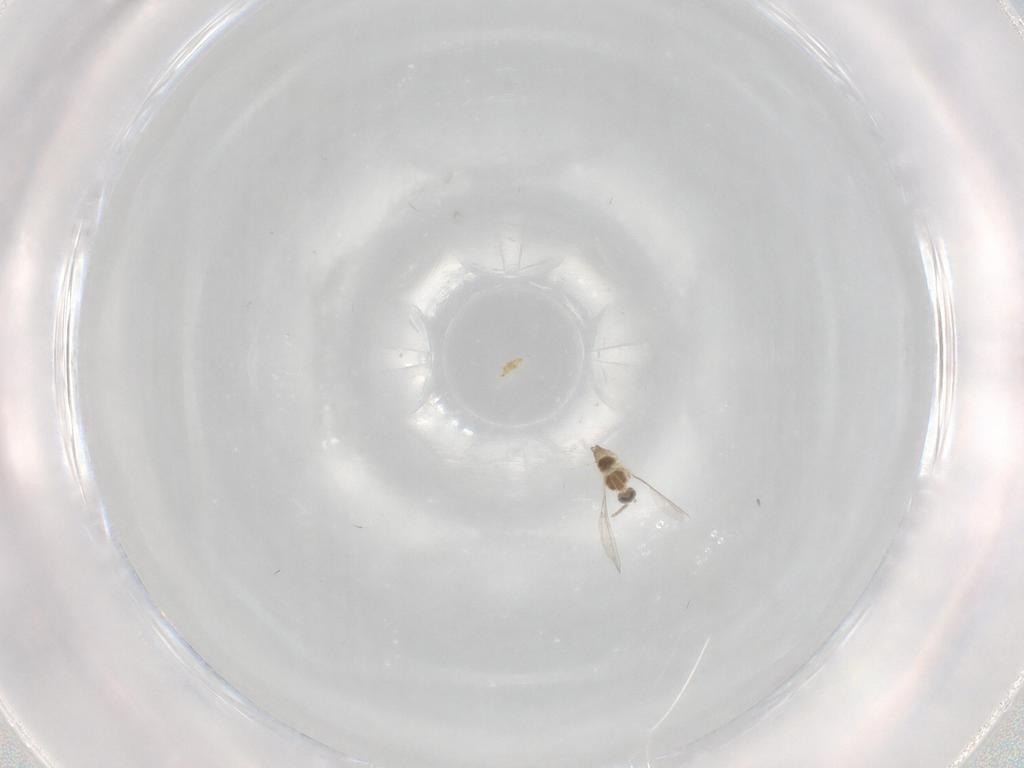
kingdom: Animalia
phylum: Arthropoda
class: Insecta
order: Diptera
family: Cecidomyiidae
